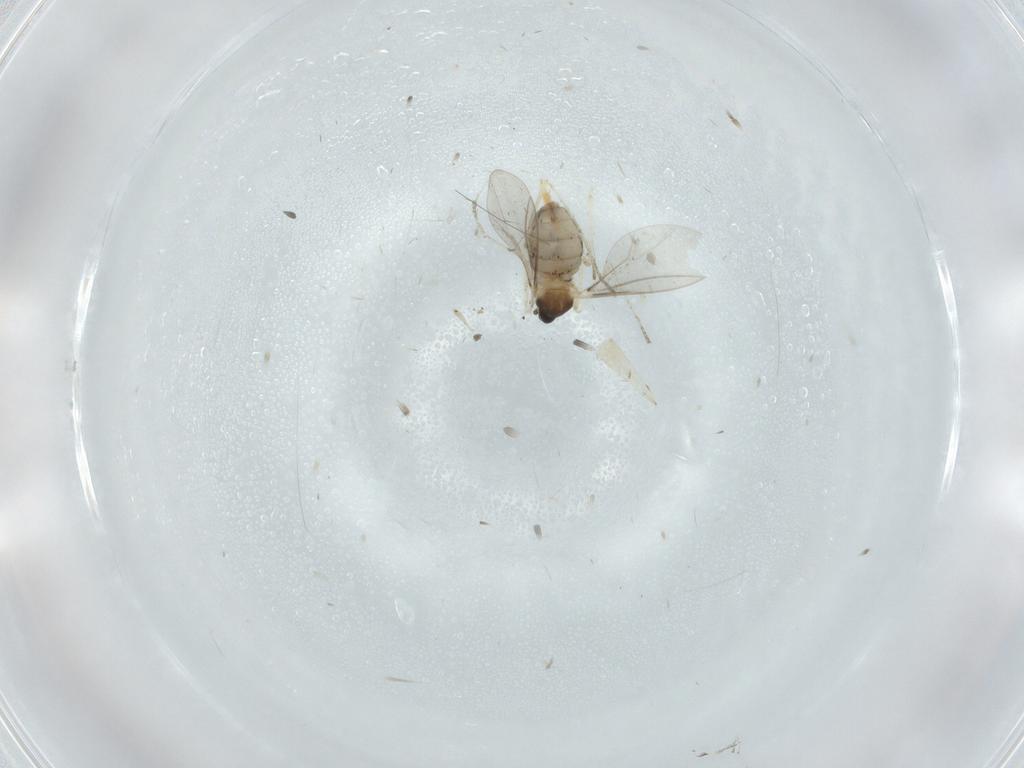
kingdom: Animalia
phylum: Arthropoda
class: Insecta
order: Diptera
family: Cecidomyiidae
